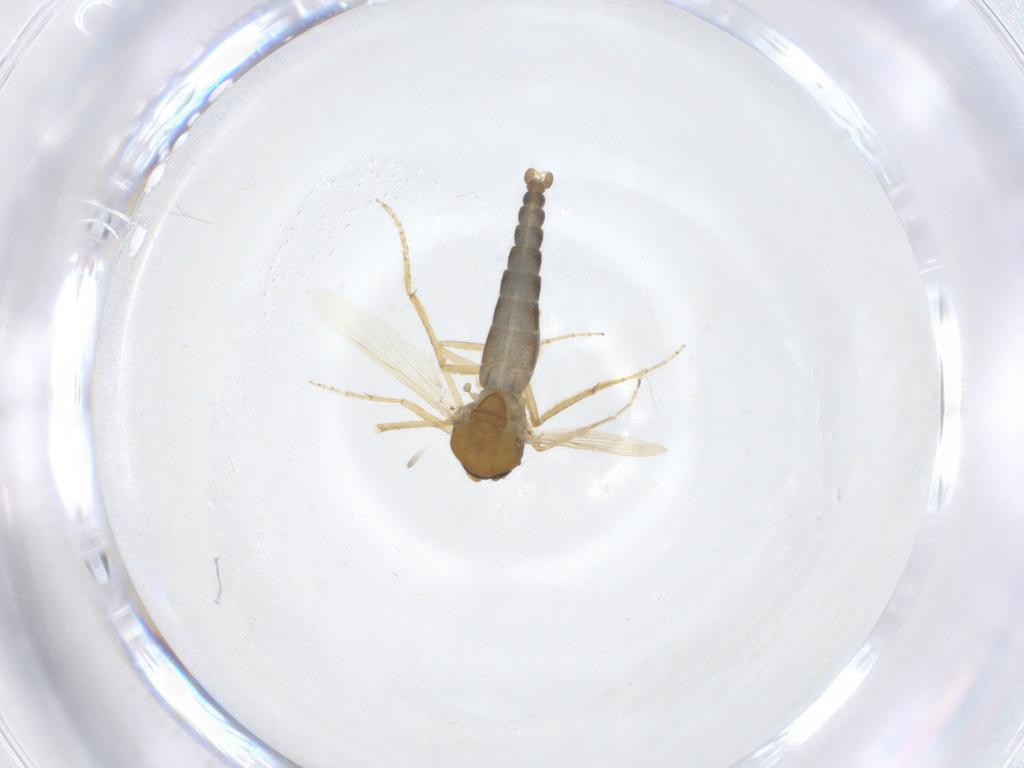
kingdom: Animalia
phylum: Arthropoda
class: Insecta
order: Diptera
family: Ceratopogonidae
